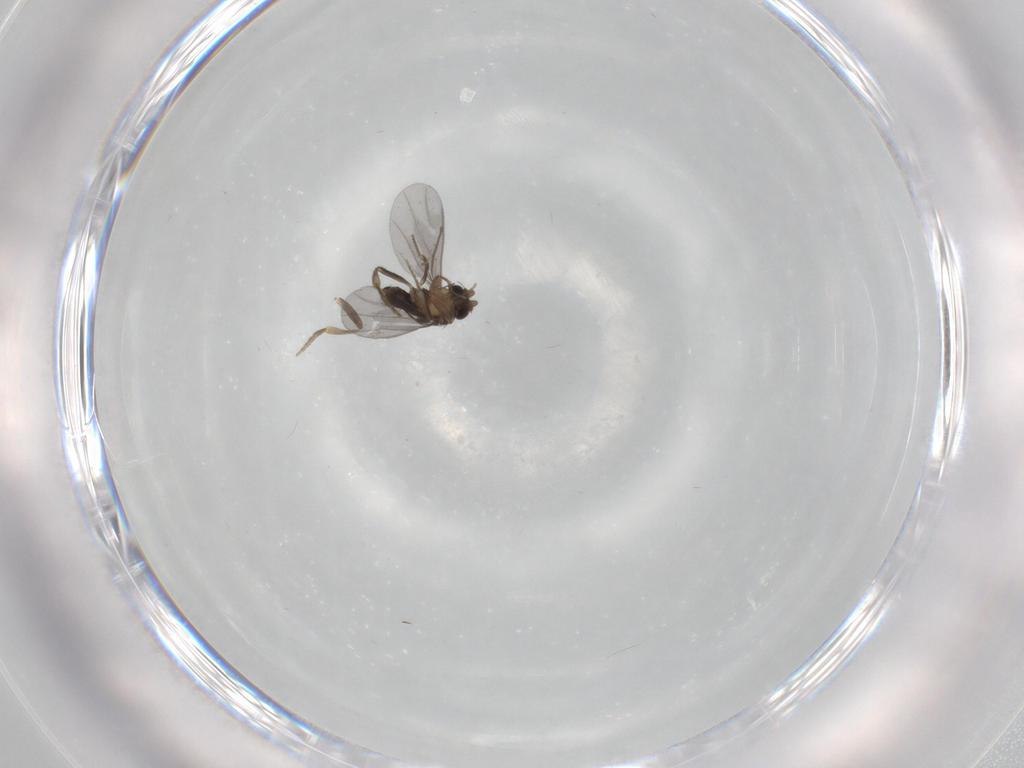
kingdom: Animalia
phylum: Arthropoda
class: Insecta
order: Diptera
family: Phoridae
